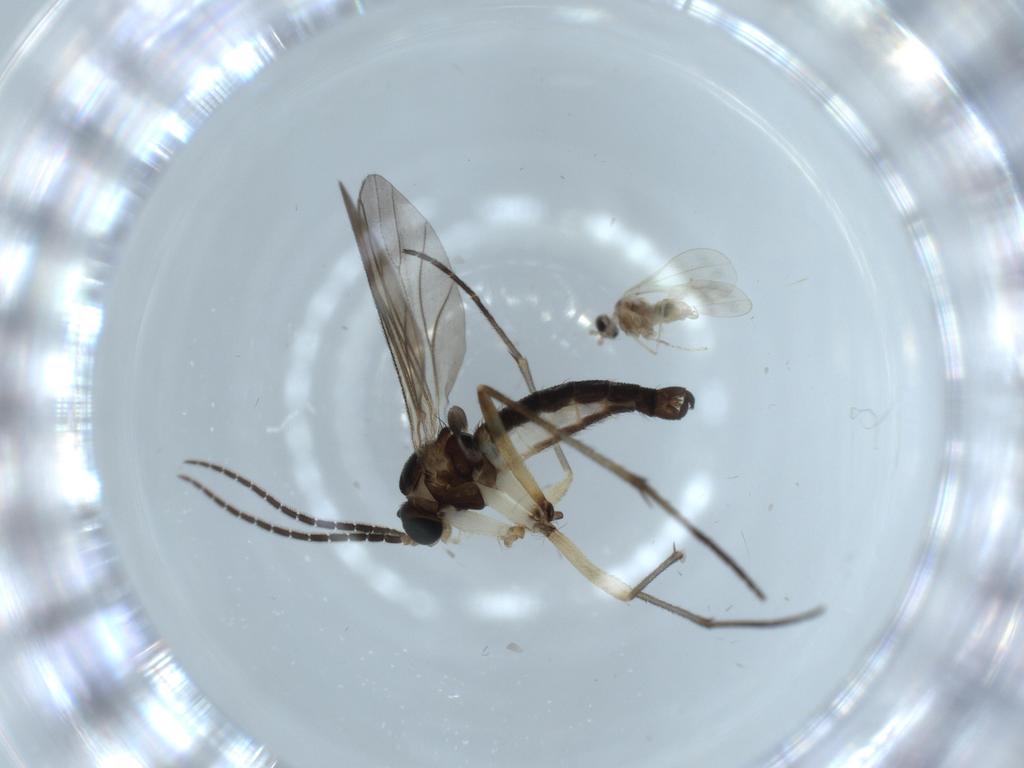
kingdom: Animalia
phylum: Arthropoda
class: Insecta
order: Diptera
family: Sciaridae
